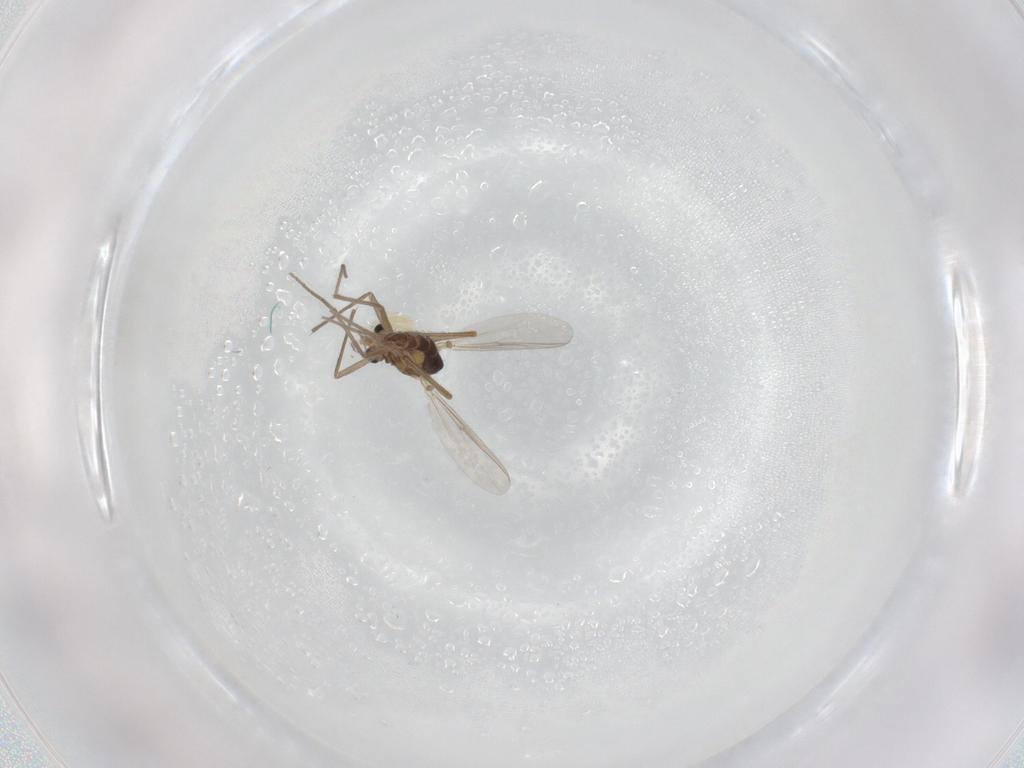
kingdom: Animalia
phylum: Arthropoda
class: Insecta
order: Diptera
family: Chironomidae
